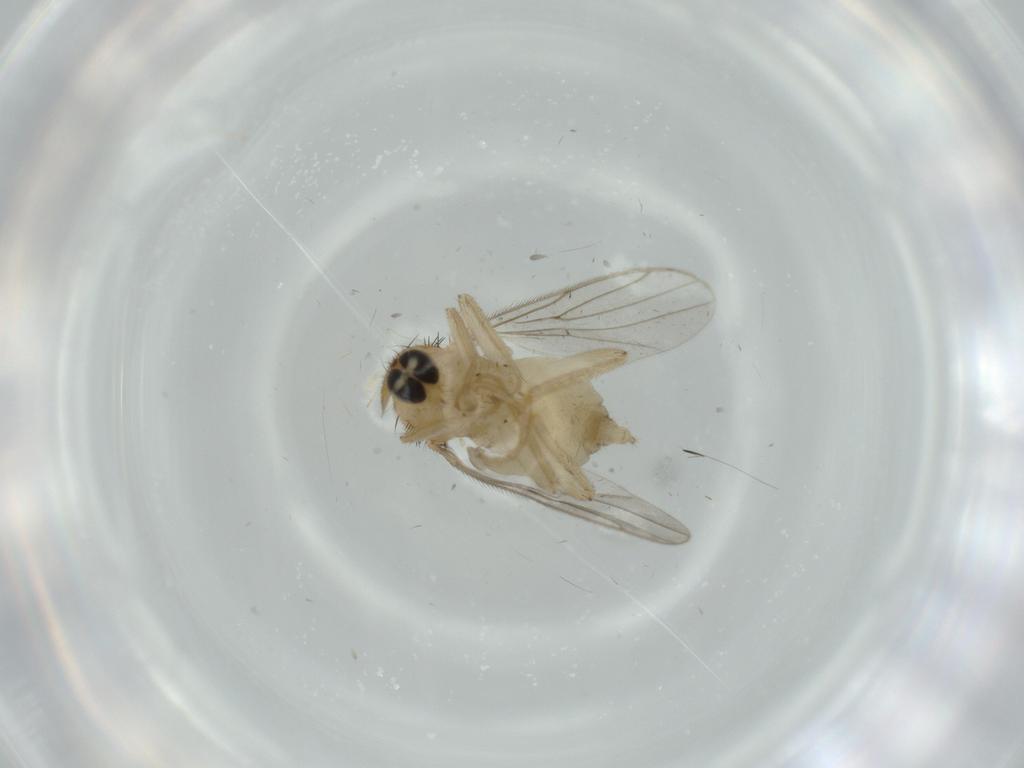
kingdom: Animalia
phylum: Arthropoda
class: Insecta
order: Diptera
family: Hybotidae
